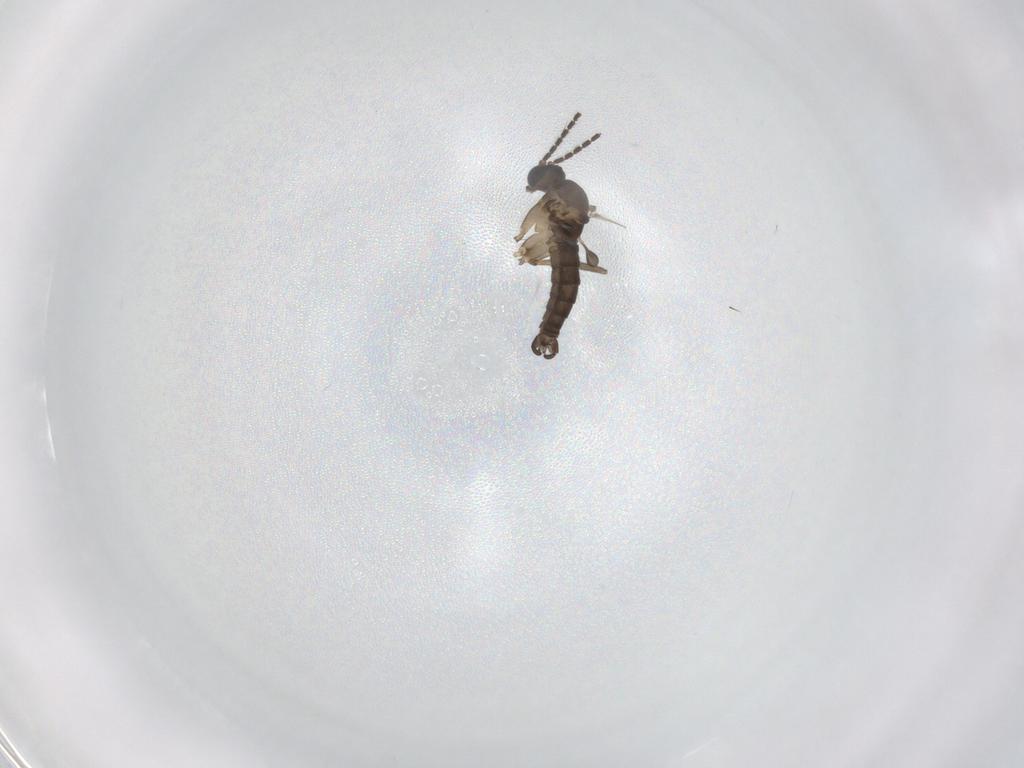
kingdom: Animalia
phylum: Arthropoda
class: Insecta
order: Diptera
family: Sciaridae
